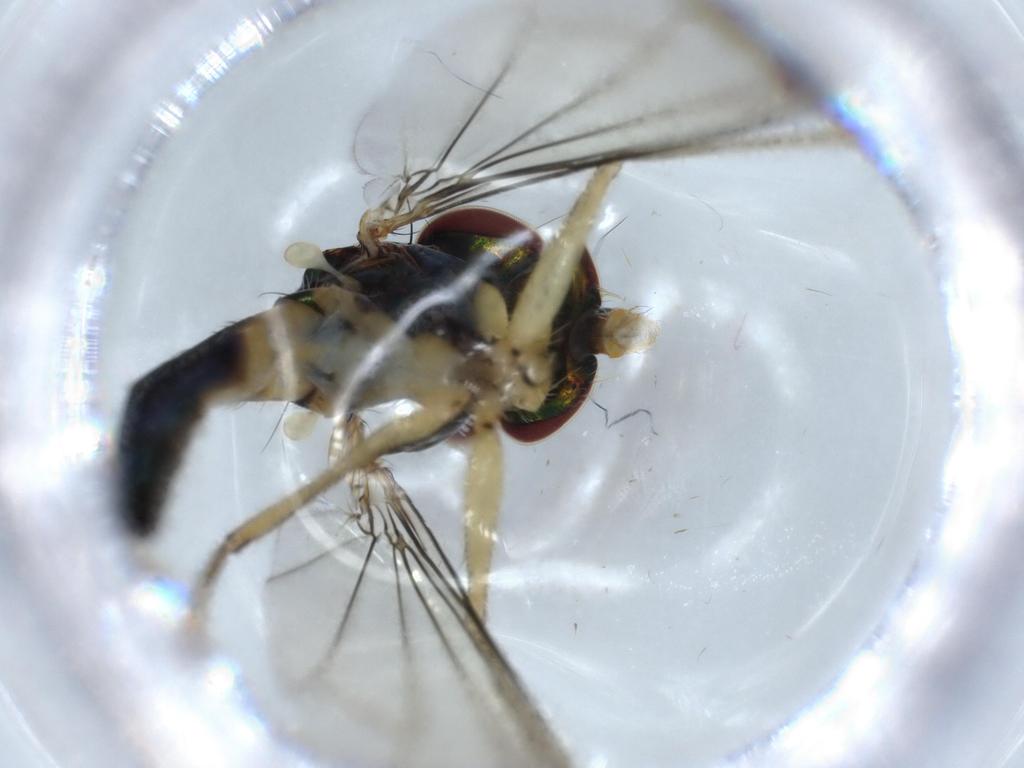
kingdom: Animalia
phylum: Arthropoda
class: Insecta
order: Diptera
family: Dolichopodidae
